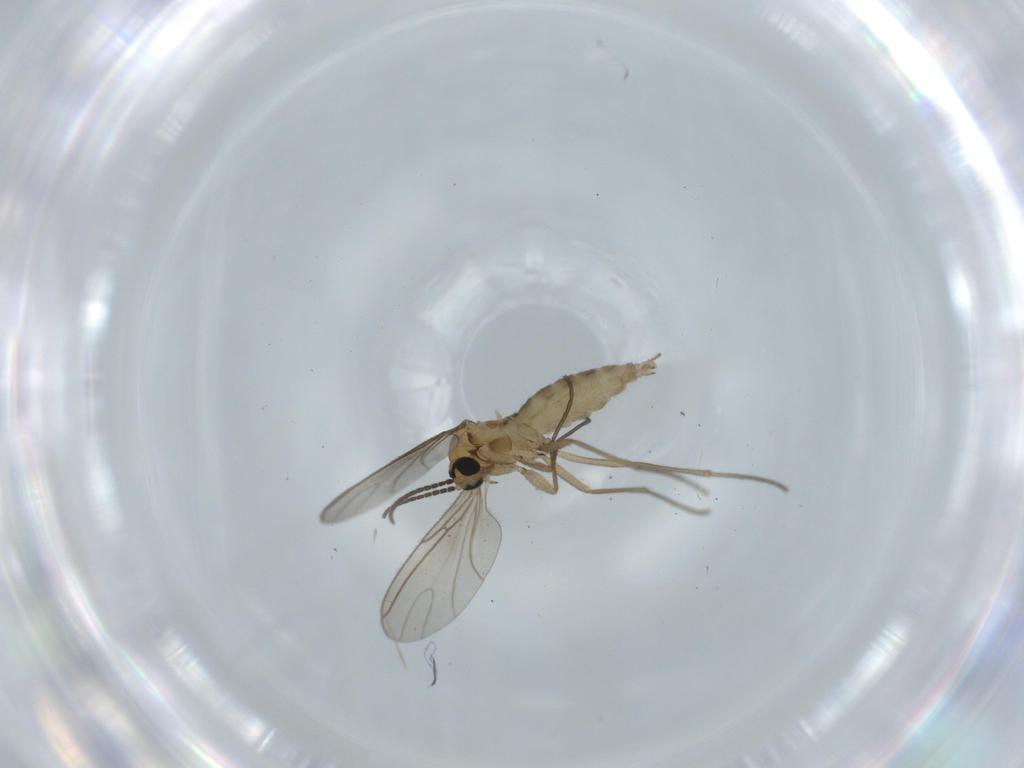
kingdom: Animalia
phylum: Arthropoda
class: Insecta
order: Diptera
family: Sciaridae
